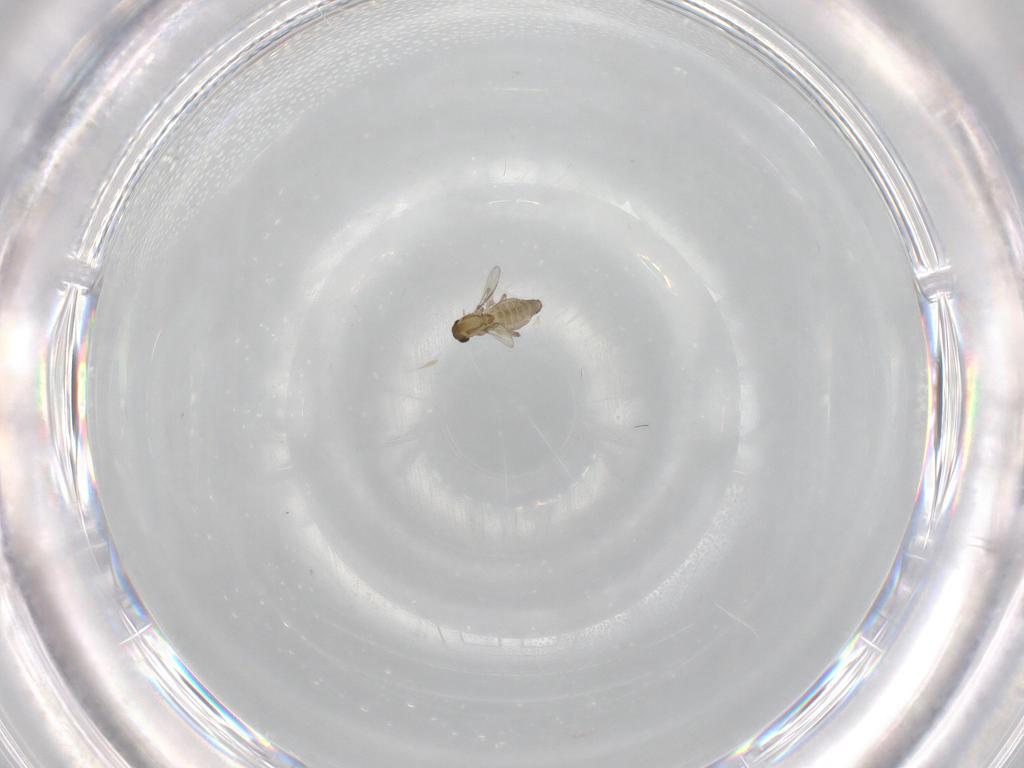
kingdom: Animalia
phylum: Arthropoda
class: Insecta
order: Diptera
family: Chironomidae
